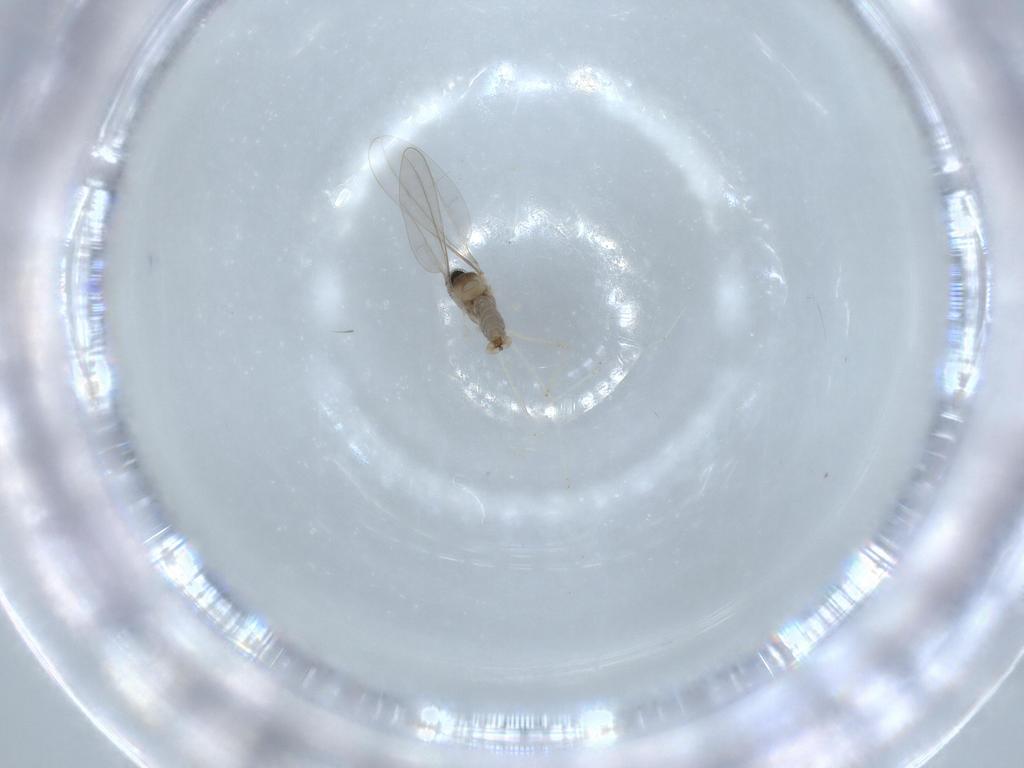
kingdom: Animalia
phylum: Arthropoda
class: Insecta
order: Diptera
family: Cecidomyiidae
